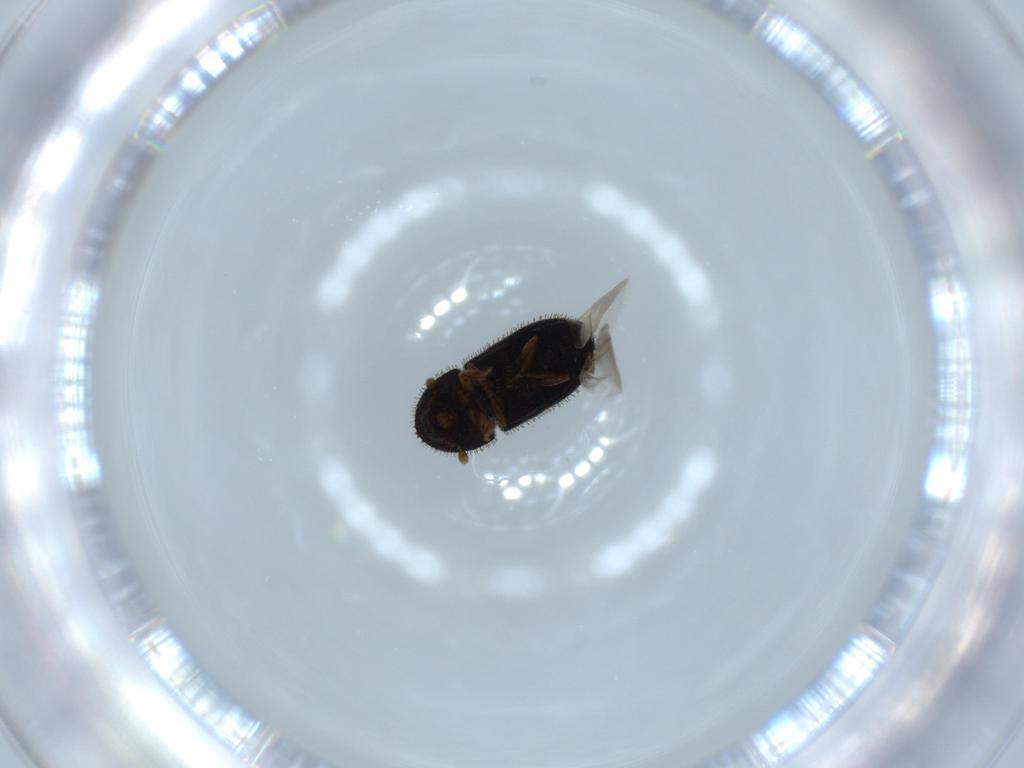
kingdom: Animalia
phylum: Arthropoda
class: Insecta
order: Coleoptera
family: Curculionidae
